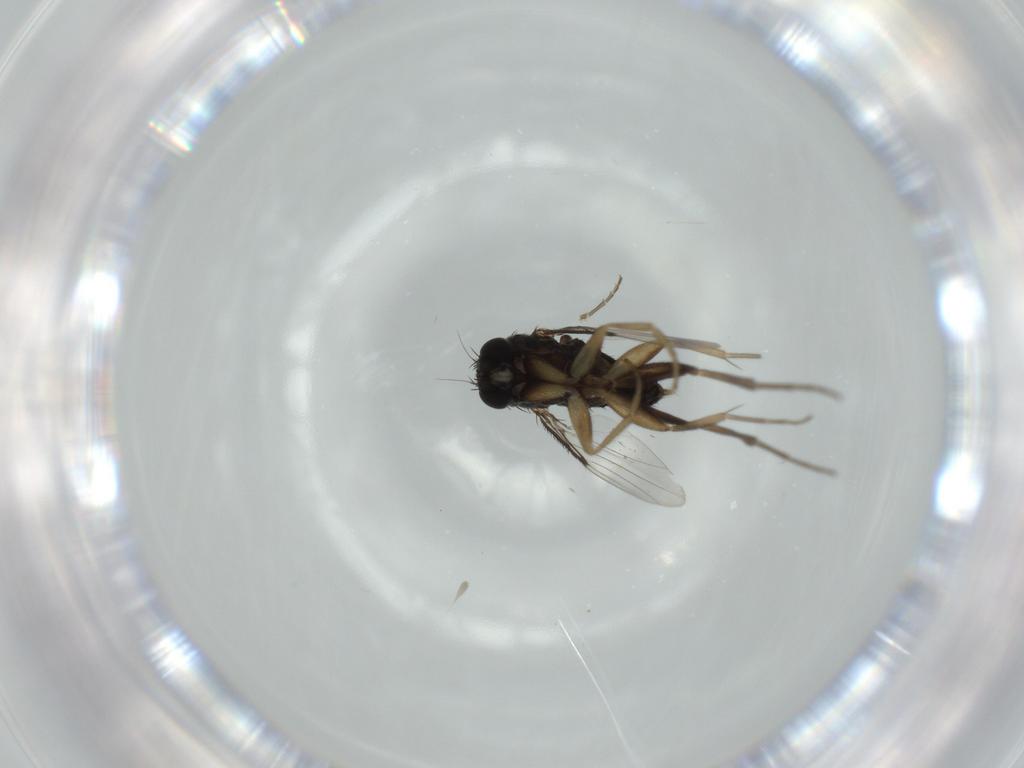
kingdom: Animalia
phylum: Arthropoda
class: Insecta
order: Diptera
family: Phoridae
